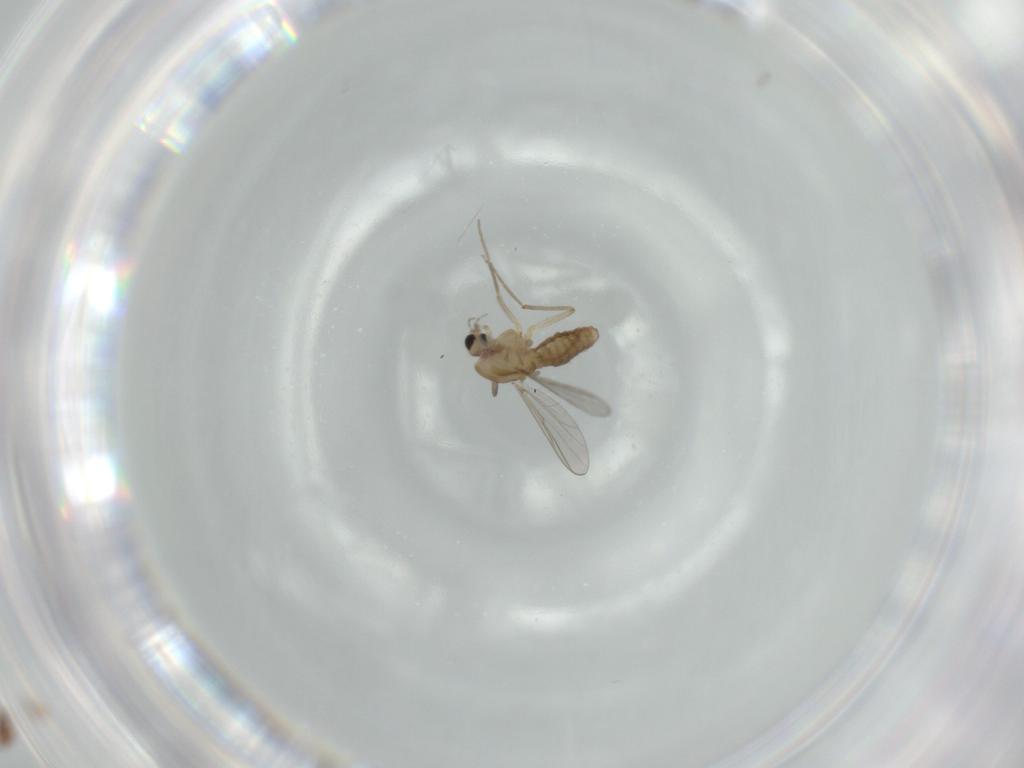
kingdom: Animalia
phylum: Arthropoda
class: Insecta
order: Diptera
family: Chironomidae
